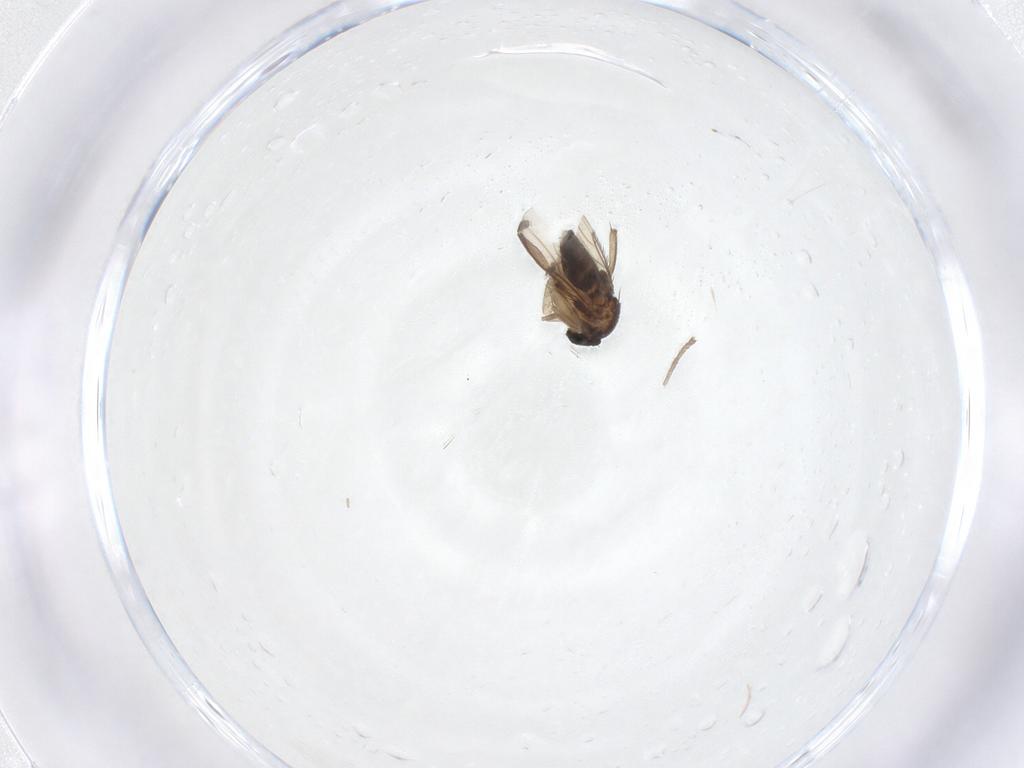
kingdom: Animalia
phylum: Arthropoda
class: Insecta
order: Diptera
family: Phoridae
